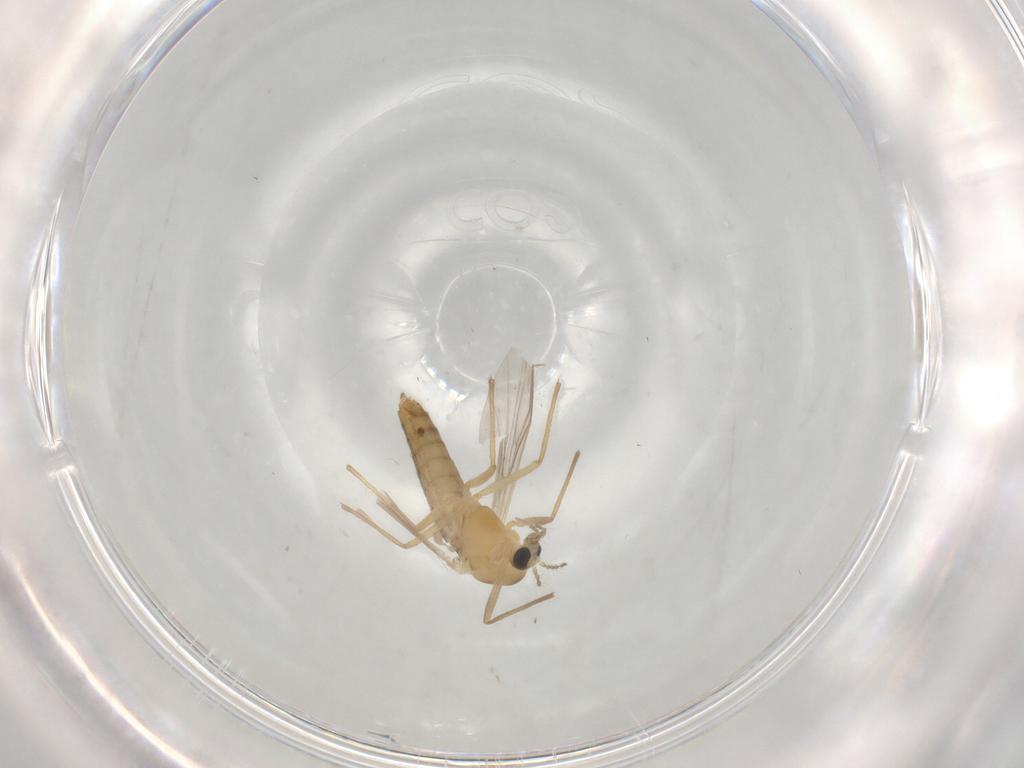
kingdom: Animalia
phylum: Arthropoda
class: Insecta
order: Diptera
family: Chironomidae
